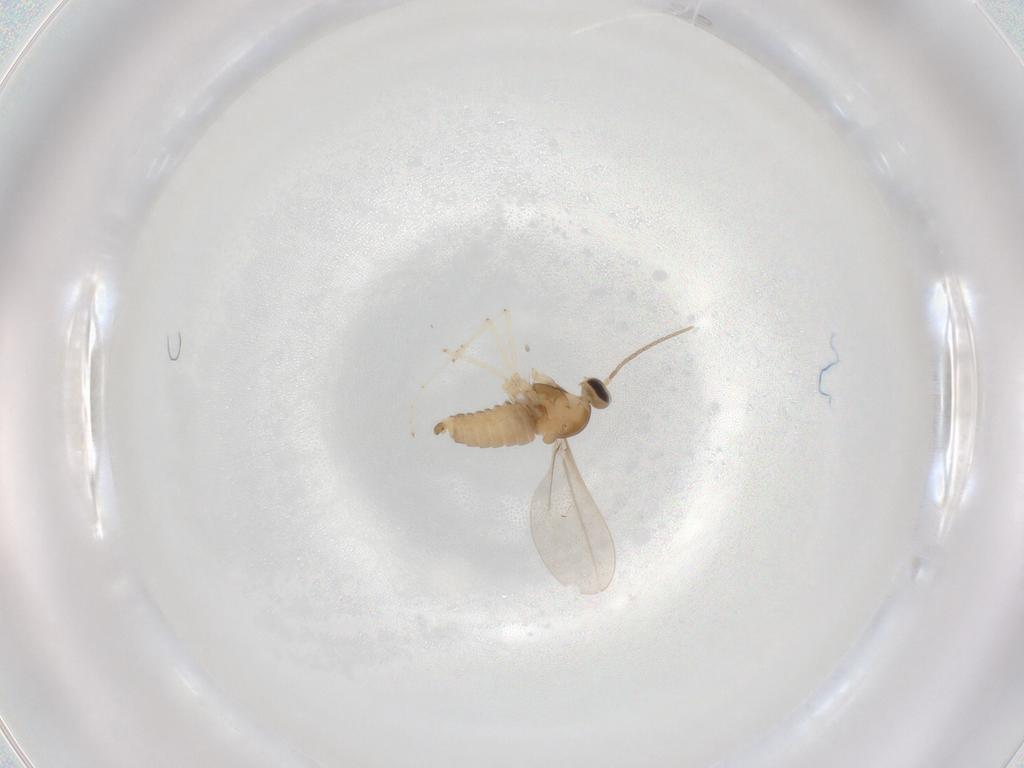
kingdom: Animalia
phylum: Arthropoda
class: Insecta
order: Diptera
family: Cecidomyiidae
